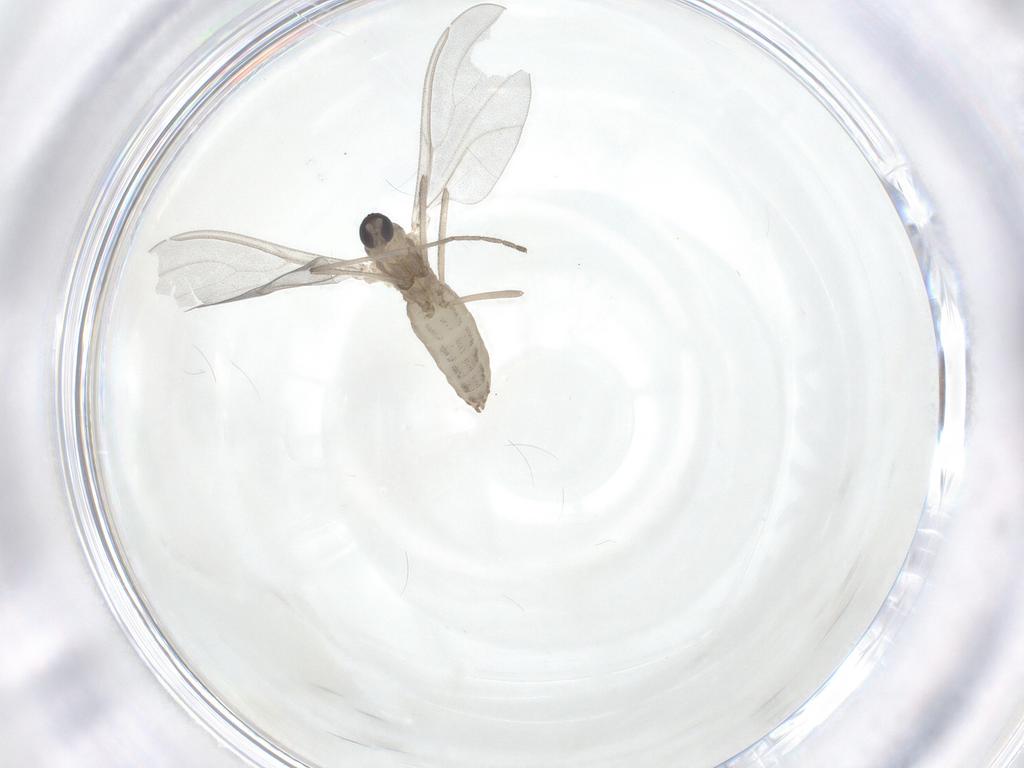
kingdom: Animalia
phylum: Arthropoda
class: Insecta
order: Diptera
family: Cecidomyiidae
